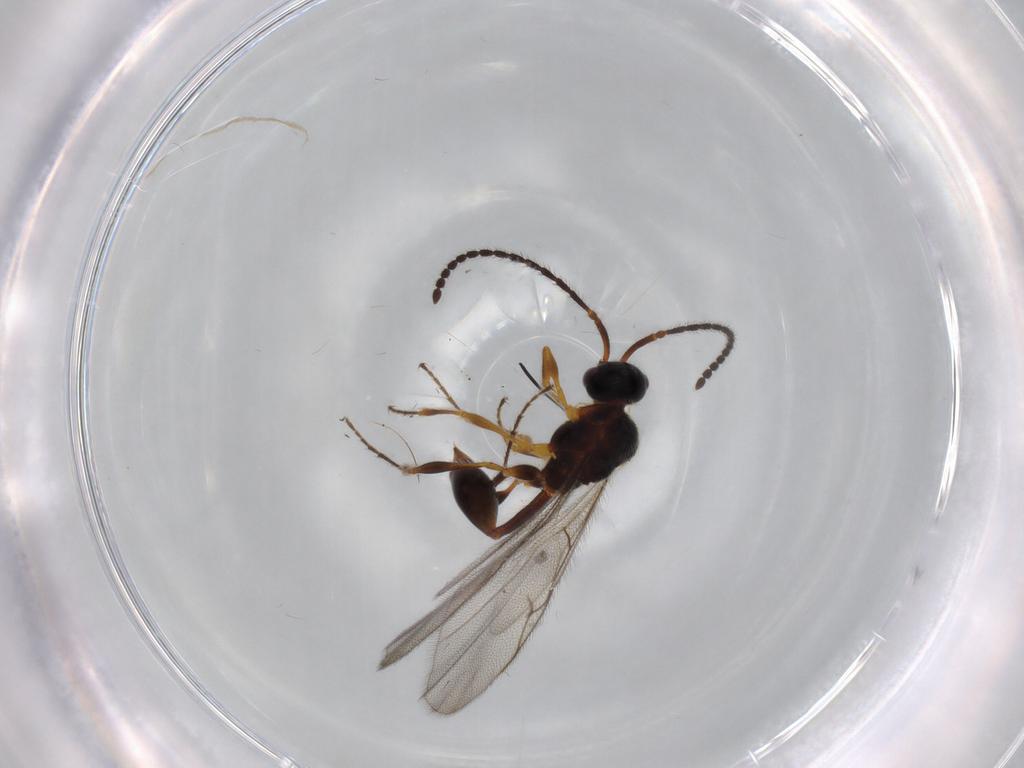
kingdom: Animalia
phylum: Arthropoda
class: Insecta
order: Hymenoptera
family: Diapriidae
